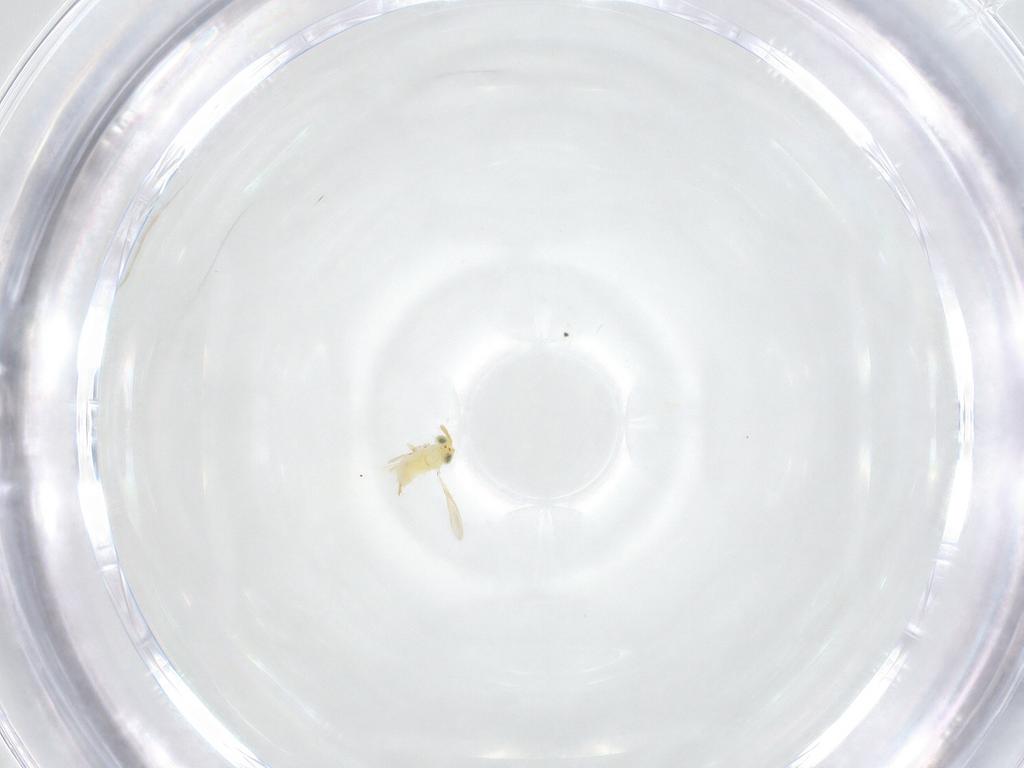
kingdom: Animalia
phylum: Arthropoda
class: Insecta
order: Hymenoptera
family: Aphelinidae
